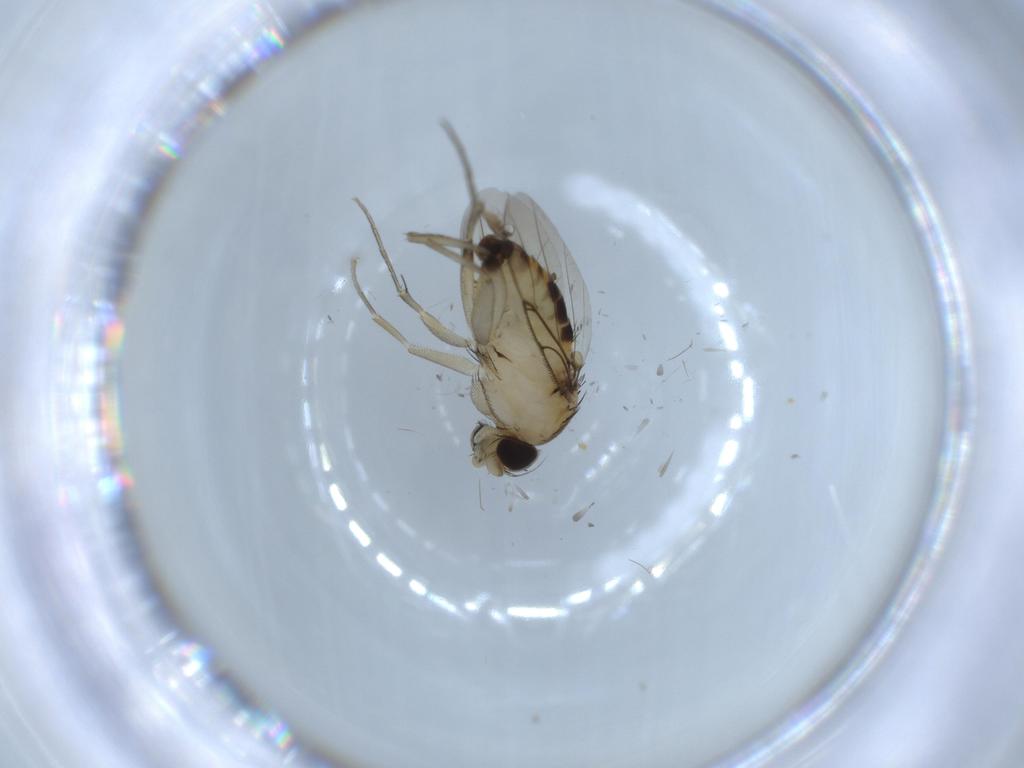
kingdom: Animalia
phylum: Arthropoda
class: Insecta
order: Diptera
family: Phoridae
